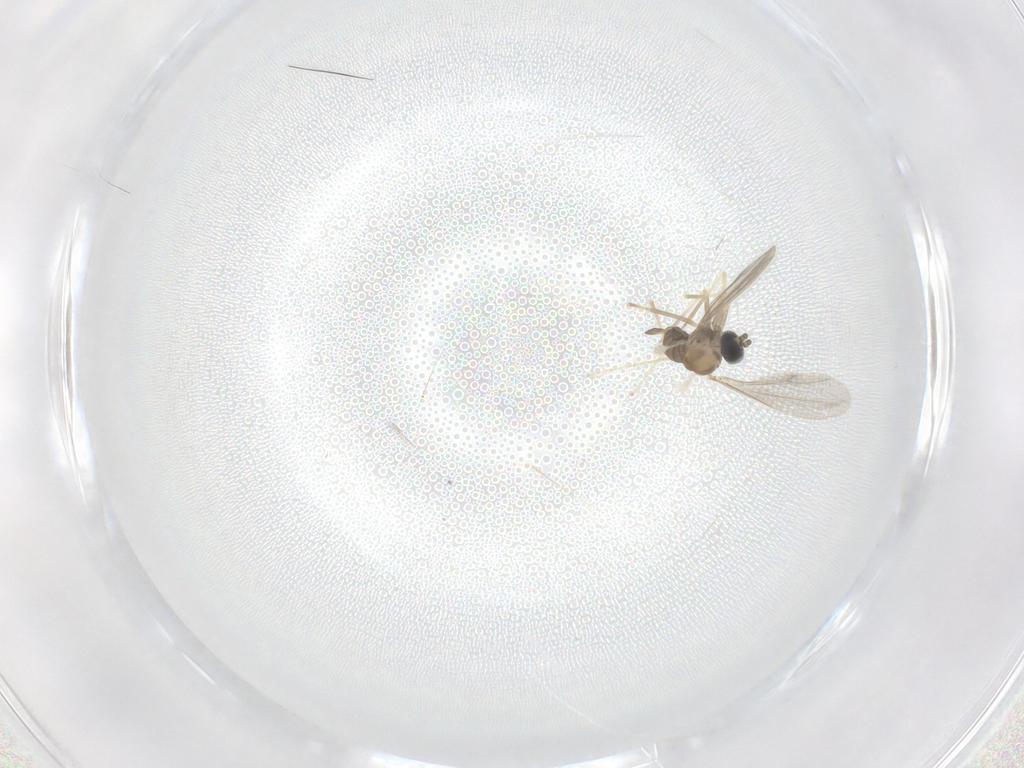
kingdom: Animalia
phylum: Arthropoda
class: Insecta
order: Diptera
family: Cecidomyiidae
